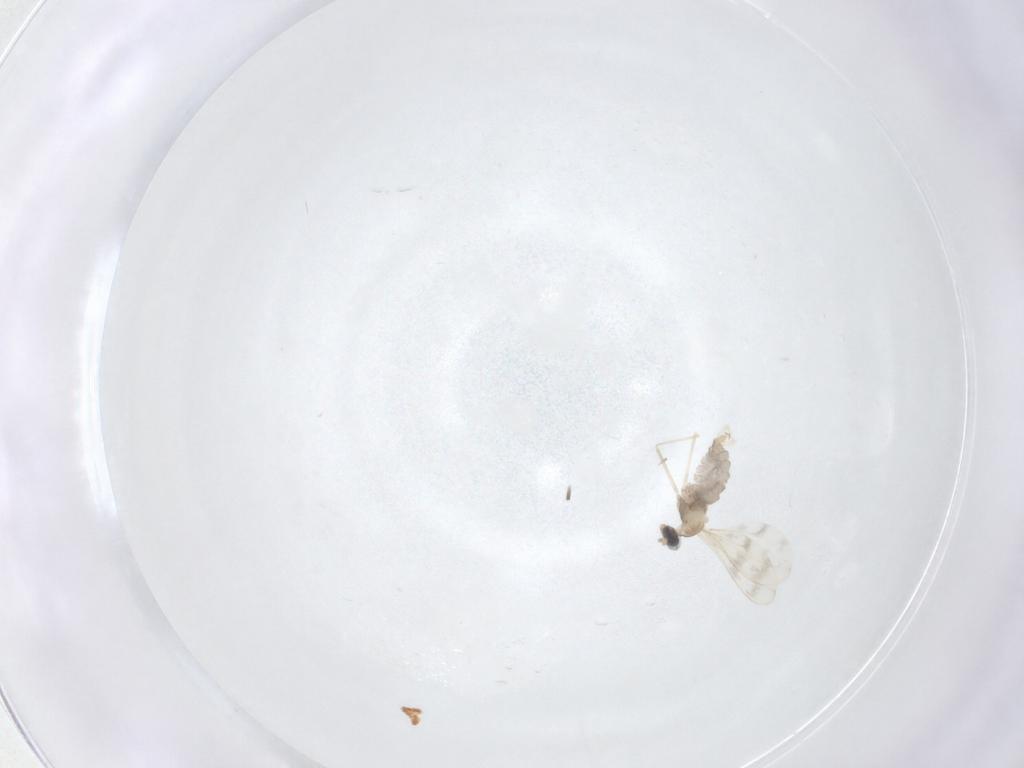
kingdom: Animalia
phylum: Arthropoda
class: Insecta
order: Diptera
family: Cecidomyiidae
